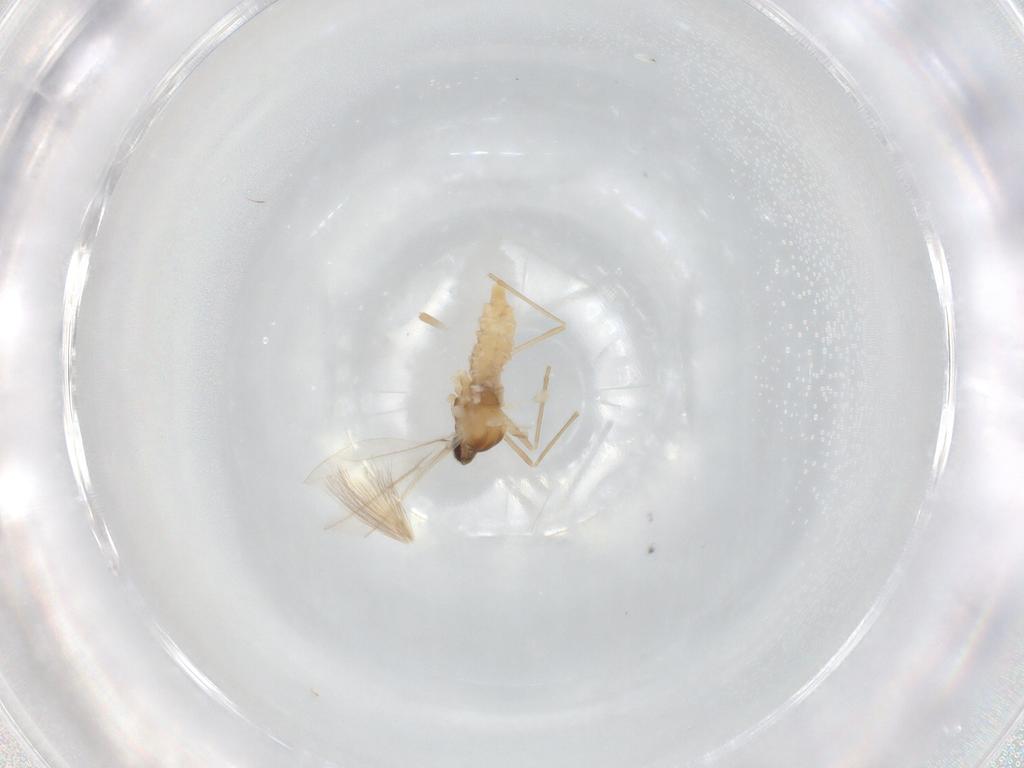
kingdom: Animalia
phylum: Arthropoda
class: Insecta
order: Diptera
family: Cecidomyiidae
